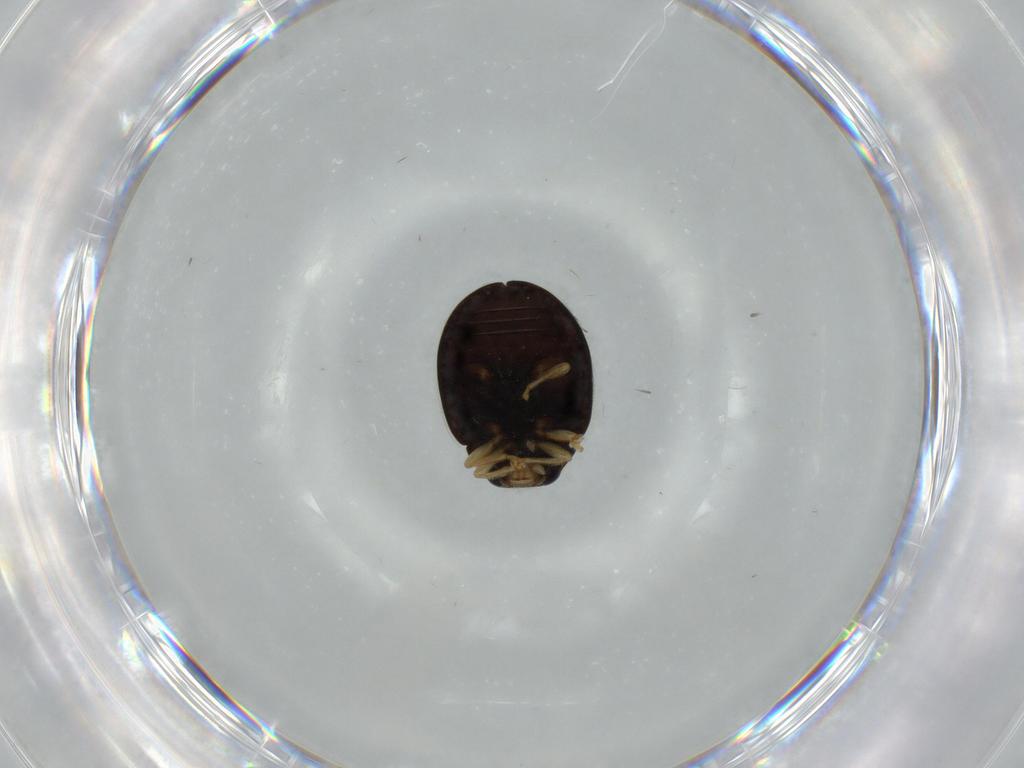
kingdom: Animalia
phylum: Arthropoda
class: Insecta
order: Coleoptera
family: Coccinellidae
